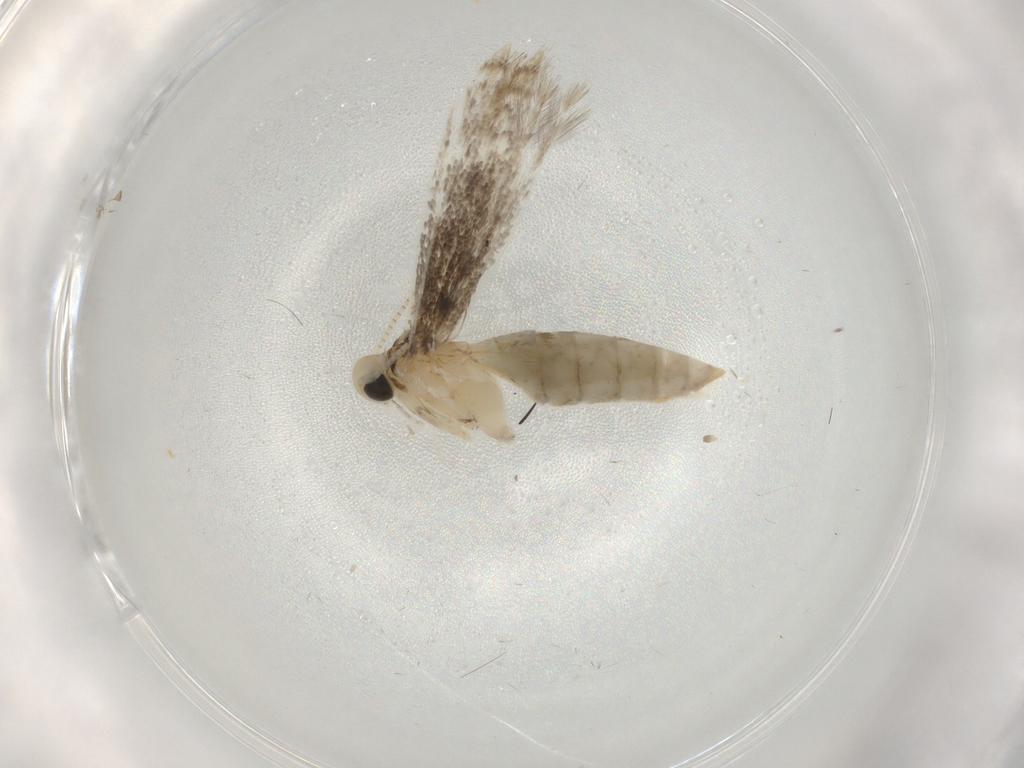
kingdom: Animalia
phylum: Arthropoda
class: Insecta
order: Lepidoptera
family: Gracillariidae
